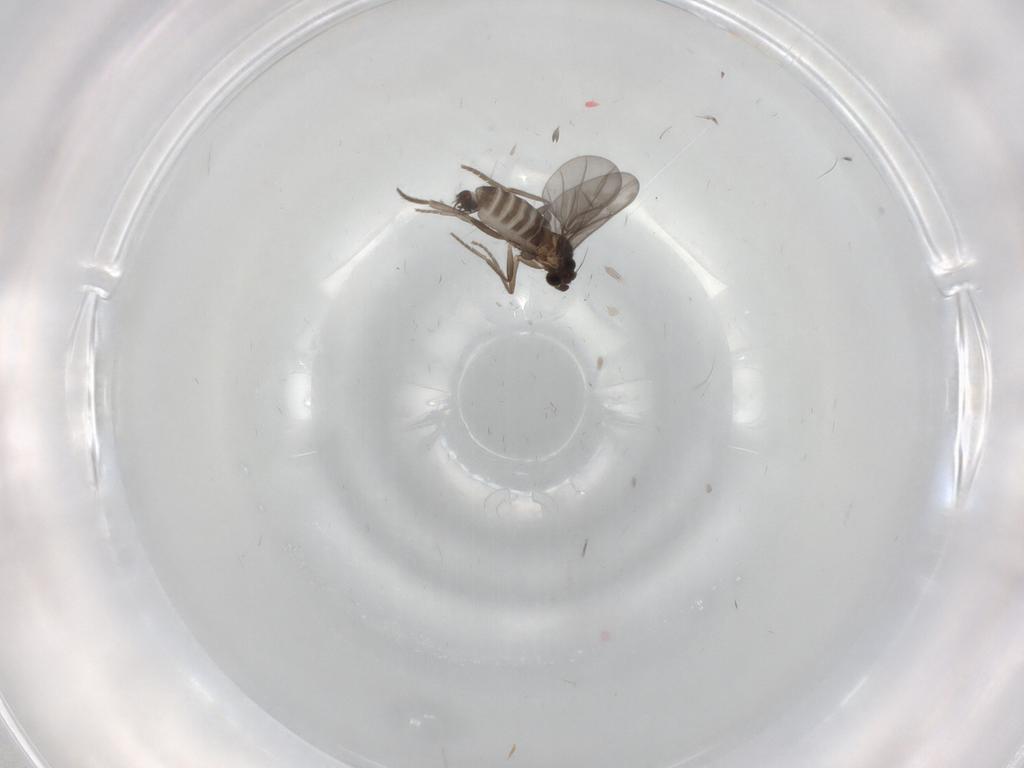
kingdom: Animalia
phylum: Arthropoda
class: Insecta
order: Diptera
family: Phoridae
